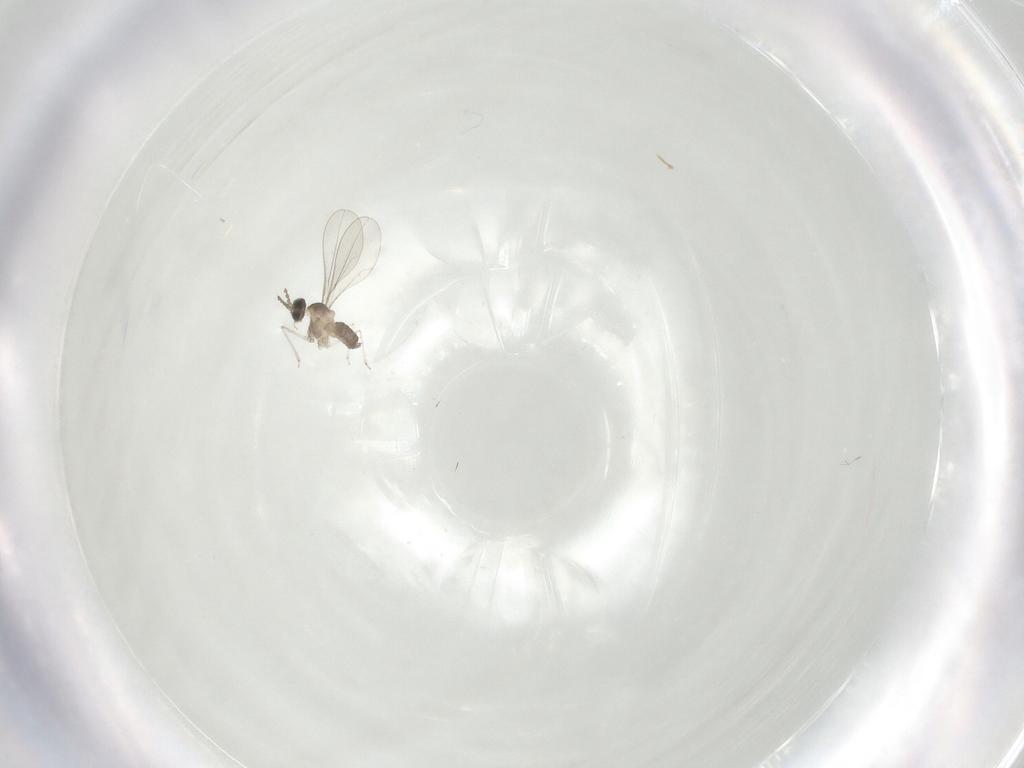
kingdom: Animalia
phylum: Arthropoda
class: Insecta
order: Diptera
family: Cecidomyiidae
